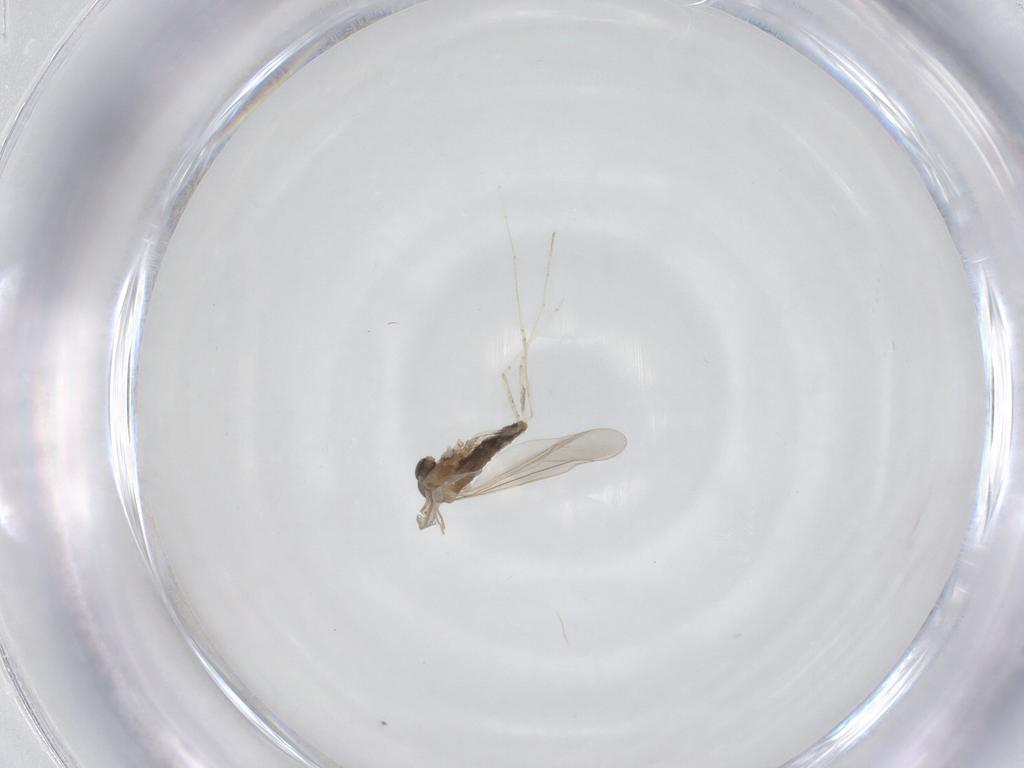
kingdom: Animalia
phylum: Arthropoda
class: Insecta
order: Diptera
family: Cecidomyiidae
